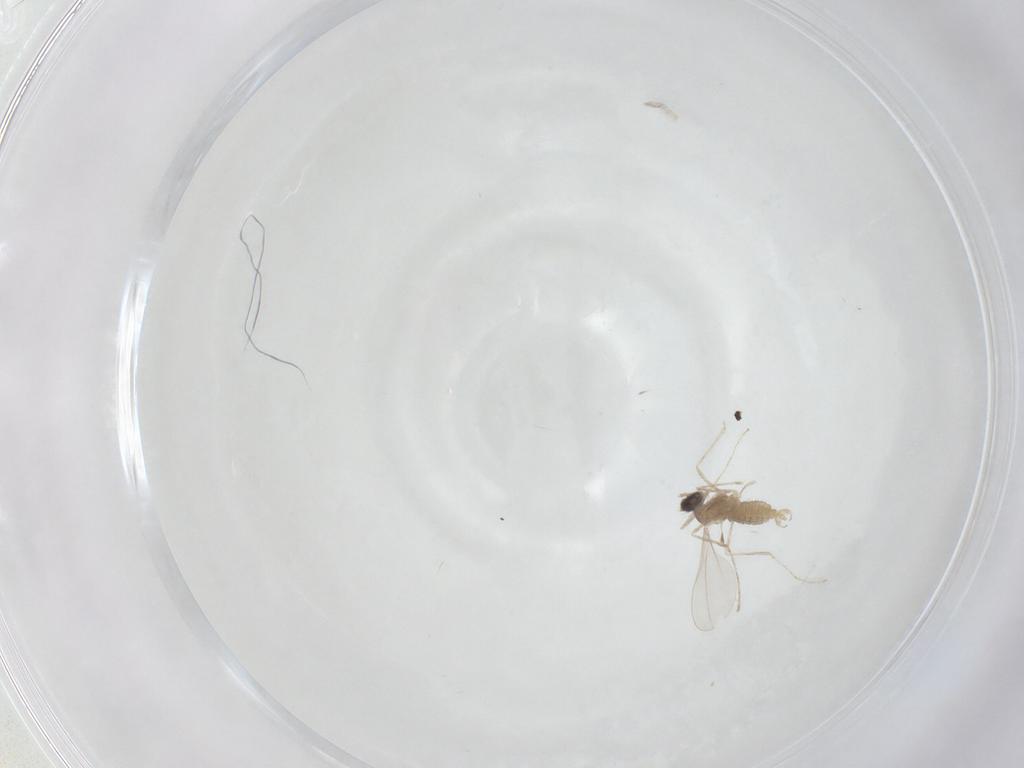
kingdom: Animalia
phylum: Arthropoda
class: Insecta
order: Diptera
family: Cecidomyiidae
